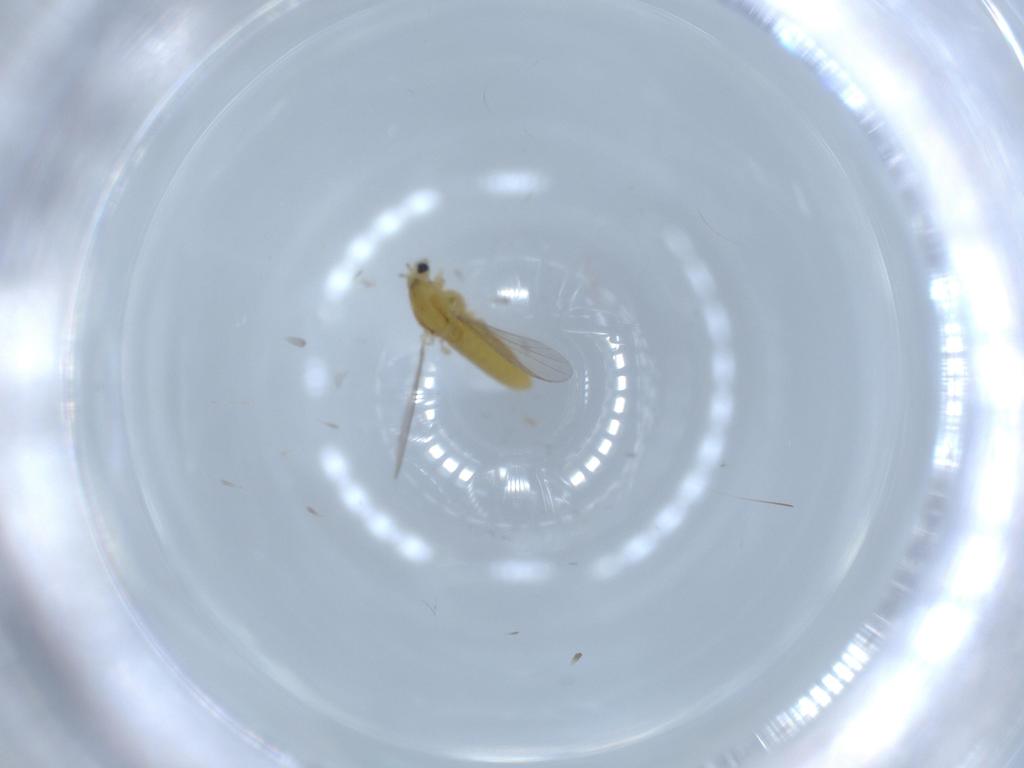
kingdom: Animalia
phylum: Arthropoda
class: Insecta
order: Diptera
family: Chironomidae
